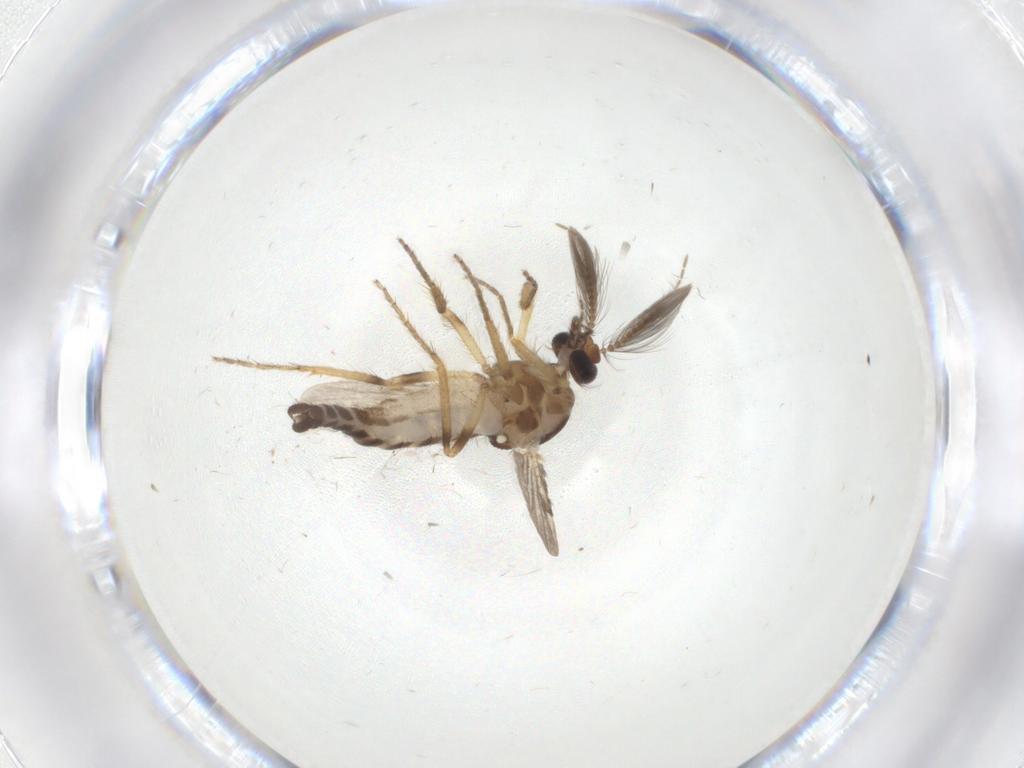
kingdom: Animalia
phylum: Arthropoda
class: Insecta
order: Diptera
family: Ceratopogonidae
